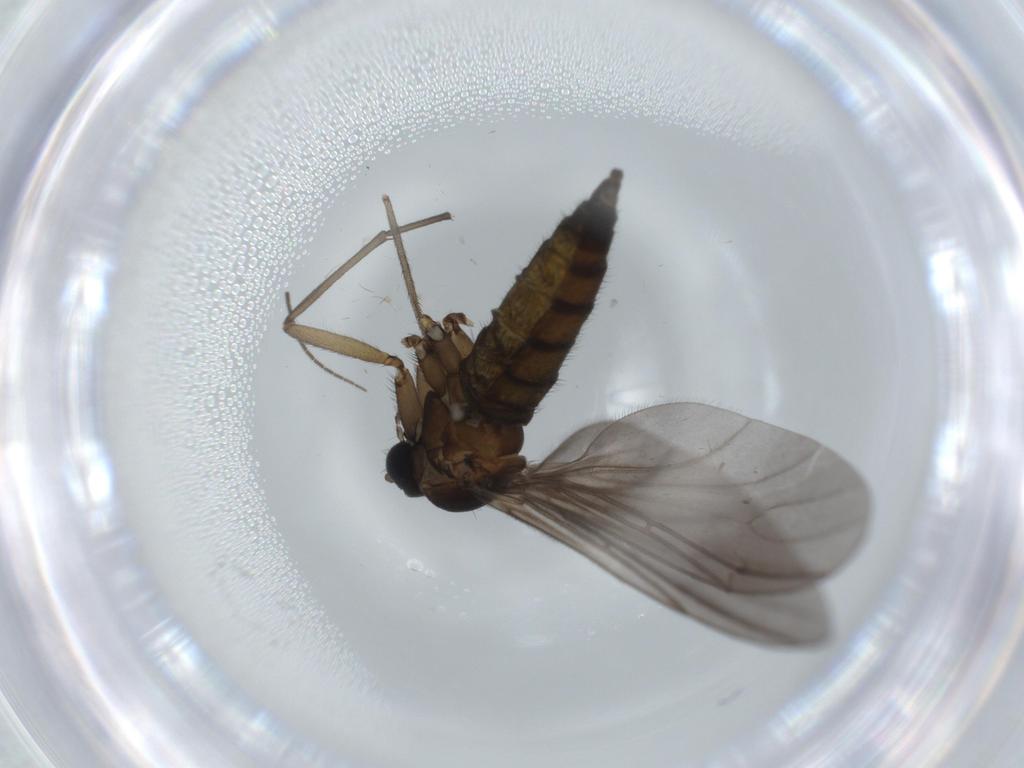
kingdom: Animalia
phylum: Arthropoda
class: Insecta
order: Diptera
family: Sciaridae
